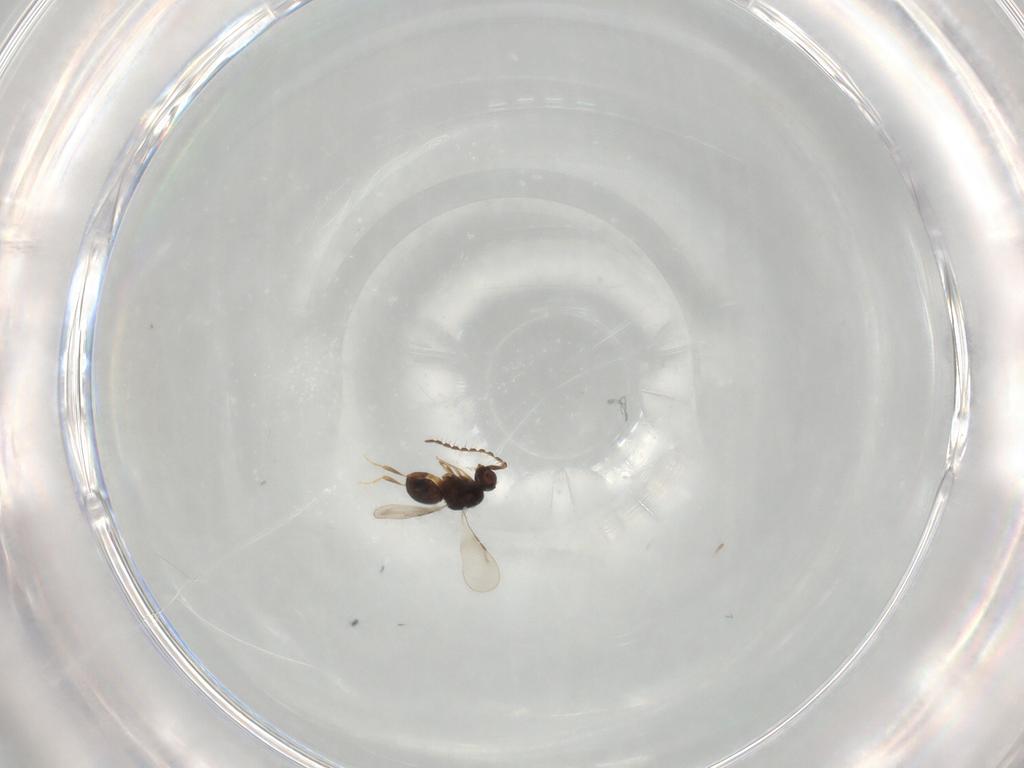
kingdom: Animalia
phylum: Arthropoda
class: Insecta
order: Hymenoptera
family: Ceraphronidae
